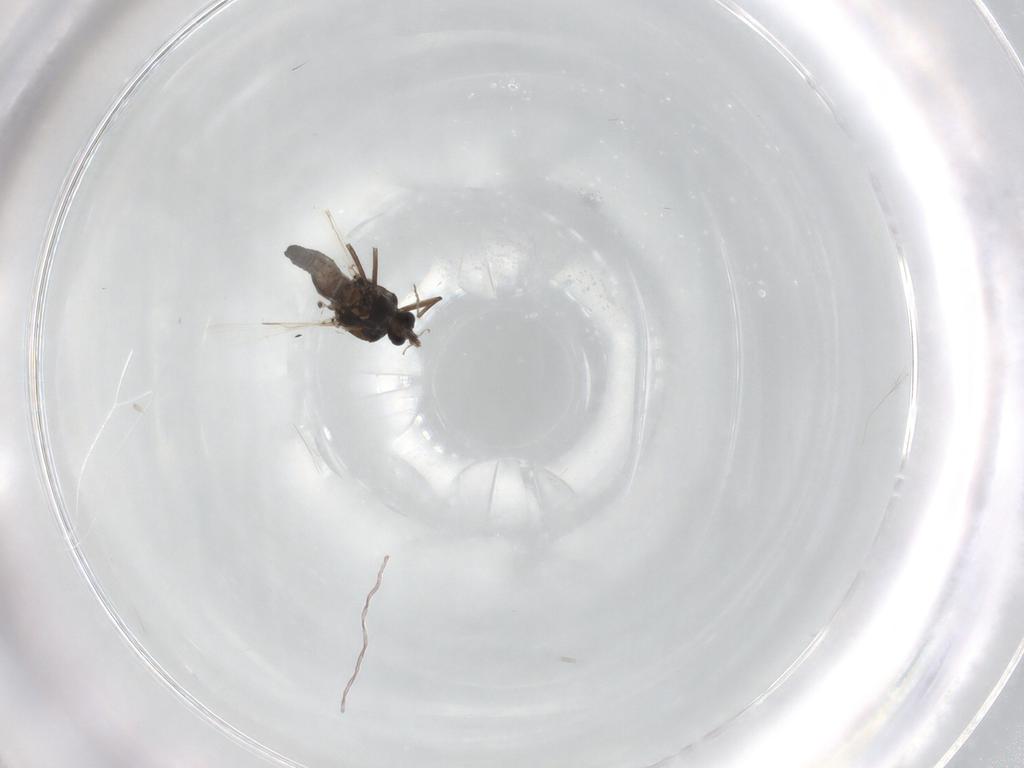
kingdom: Animalia
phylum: Arthropoda
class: Insecta
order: Diptera
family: Ceratopogonidae
